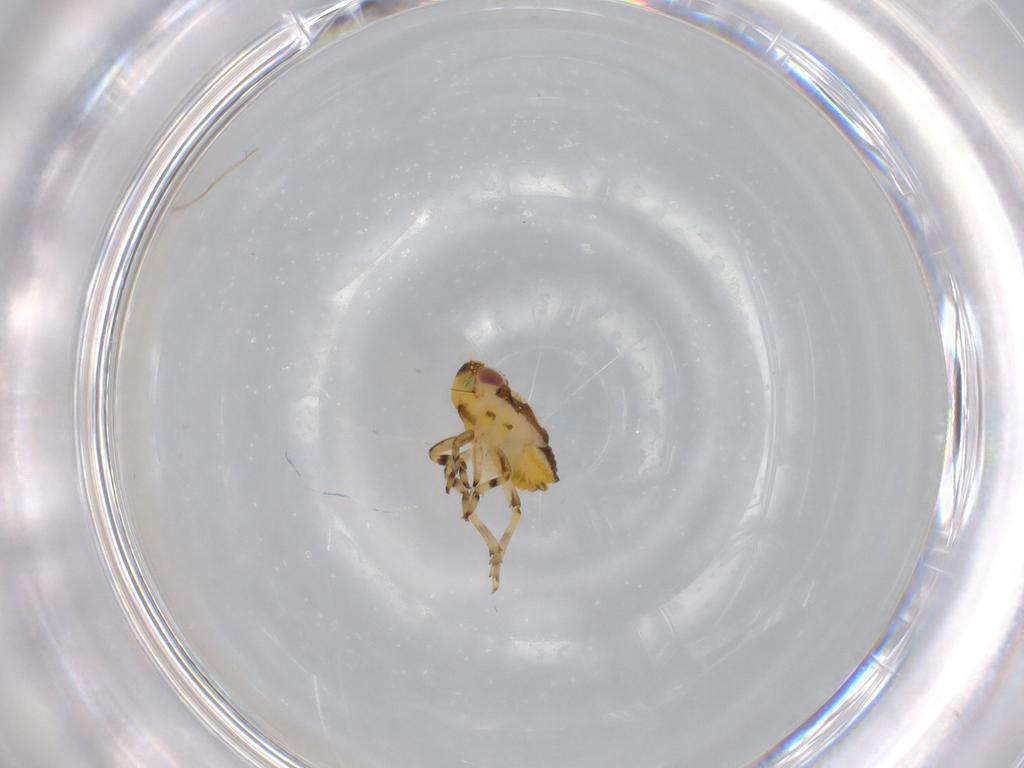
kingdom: Animalia
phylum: Arthropoda
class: Insecta
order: Hemiptera
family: Issidae
